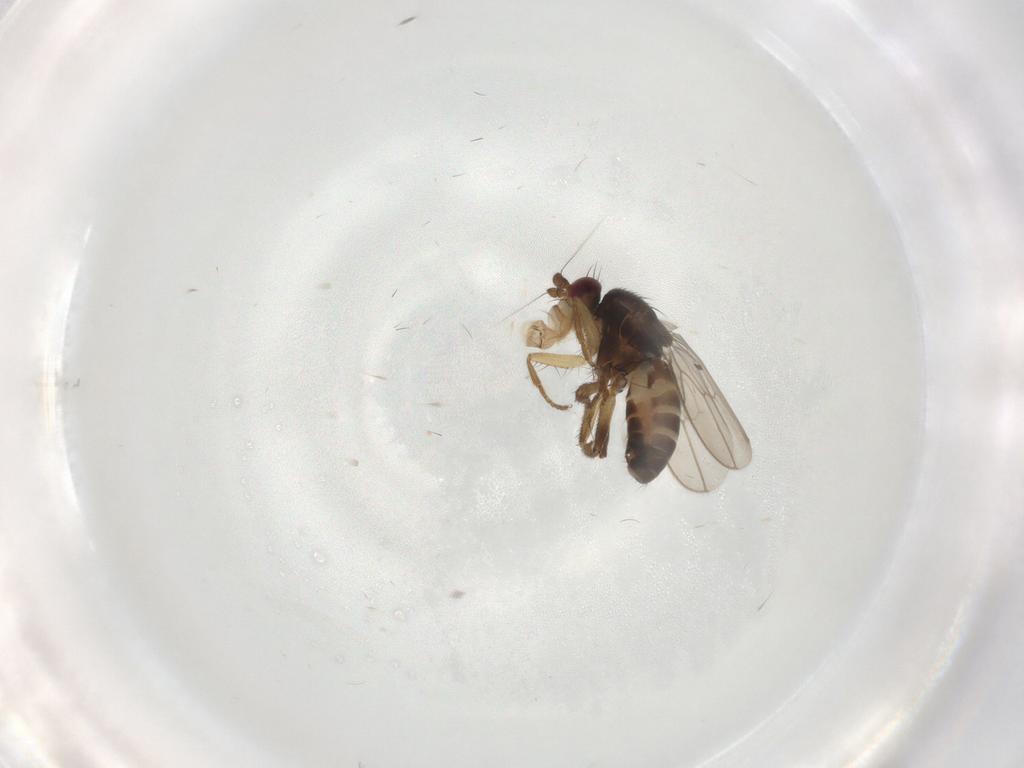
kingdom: Animalia
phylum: Arthropoda
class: Insecta
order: Diptera
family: Sphaeroceridae
